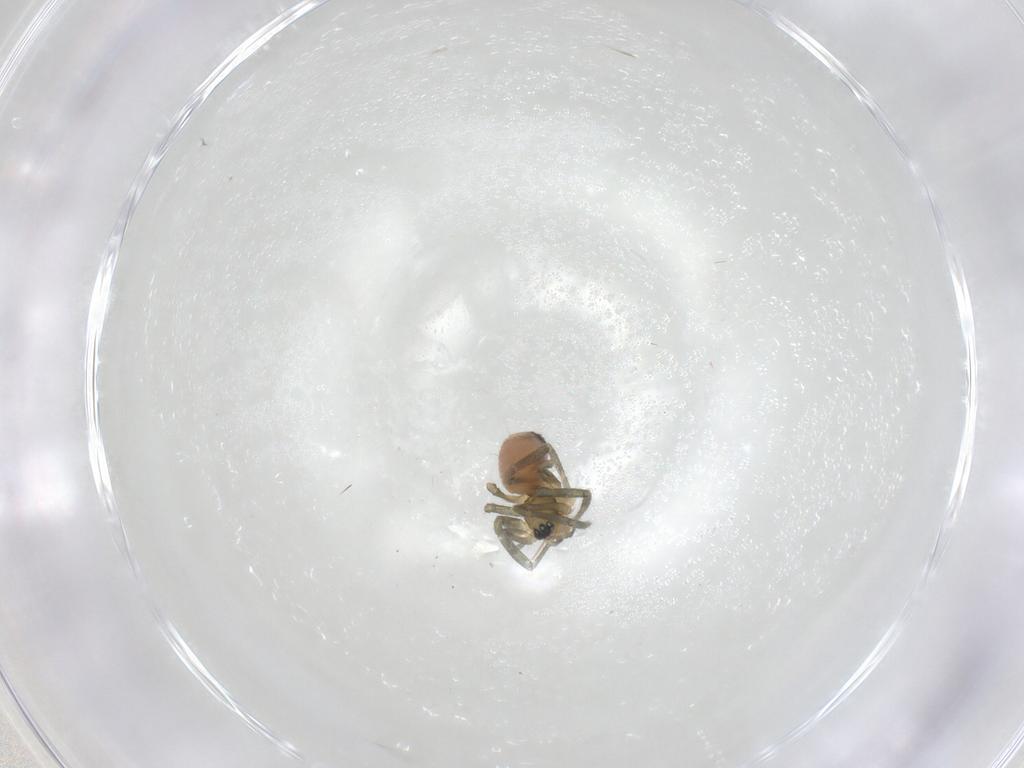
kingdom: Animalia
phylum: Arthropoda
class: Arachnida
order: Araneae
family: Linyphiidae
